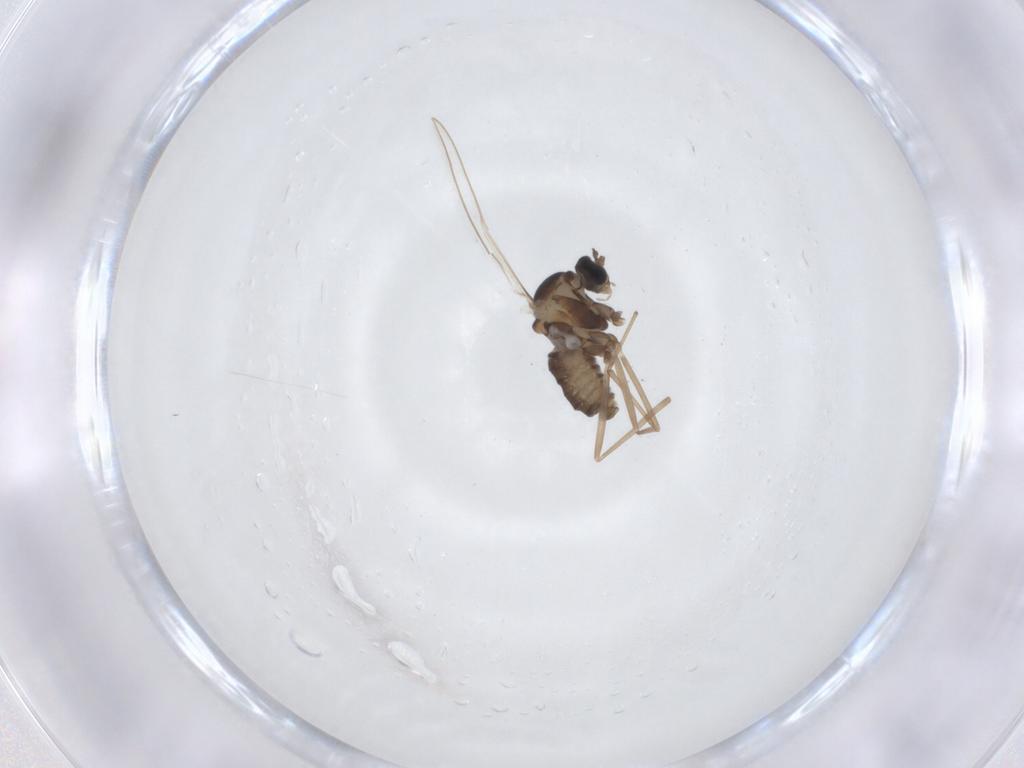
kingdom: Animalia
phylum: Arthropoda
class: Insecta
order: Diptera
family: Cecidomyiidae
